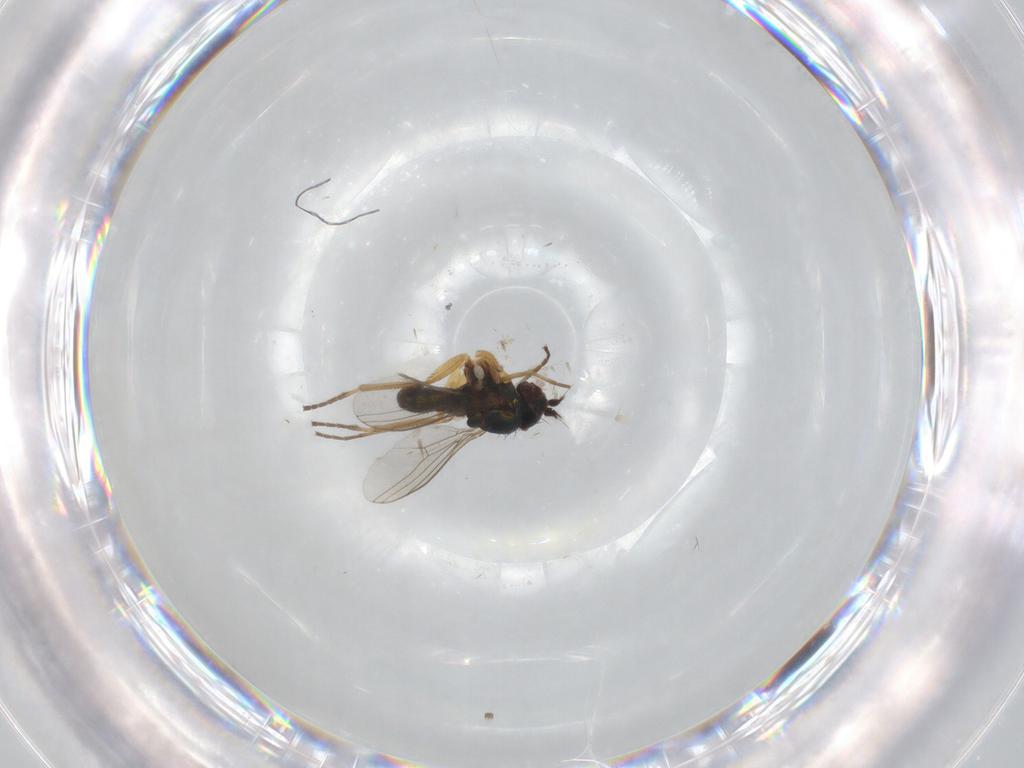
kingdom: Animalia
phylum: Arthropoda
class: Insecta
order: Diptera
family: Dolichopodidae
